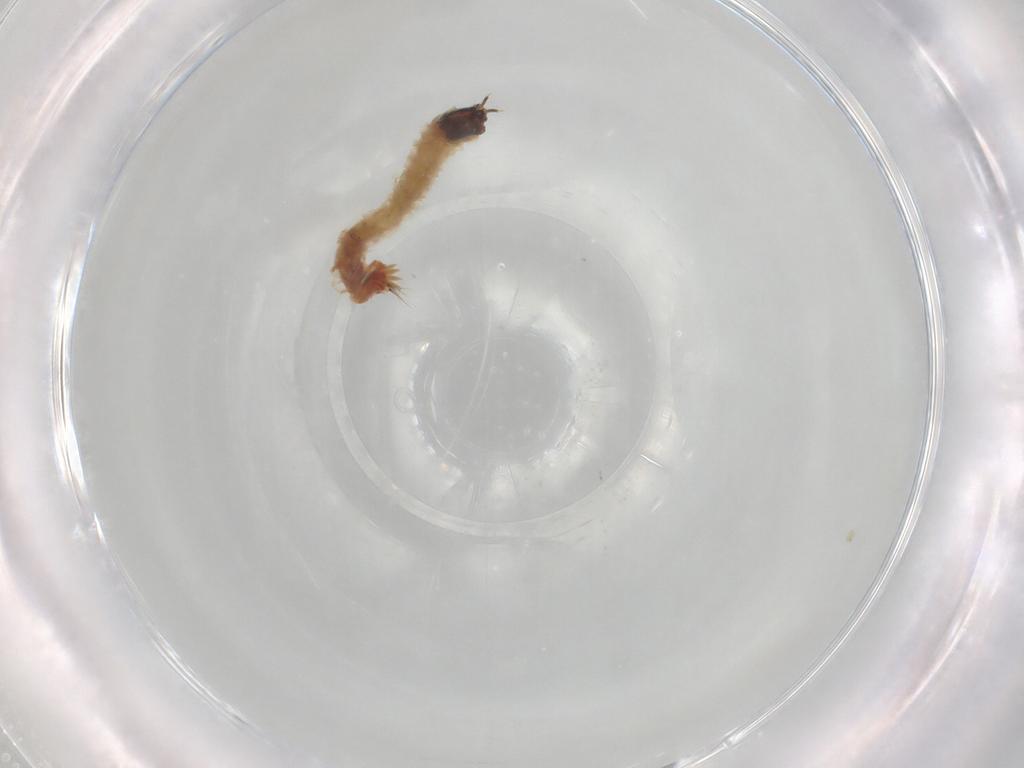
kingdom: Animalia
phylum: Arthropoda
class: Insecta
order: Diptera
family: Chironomidae
